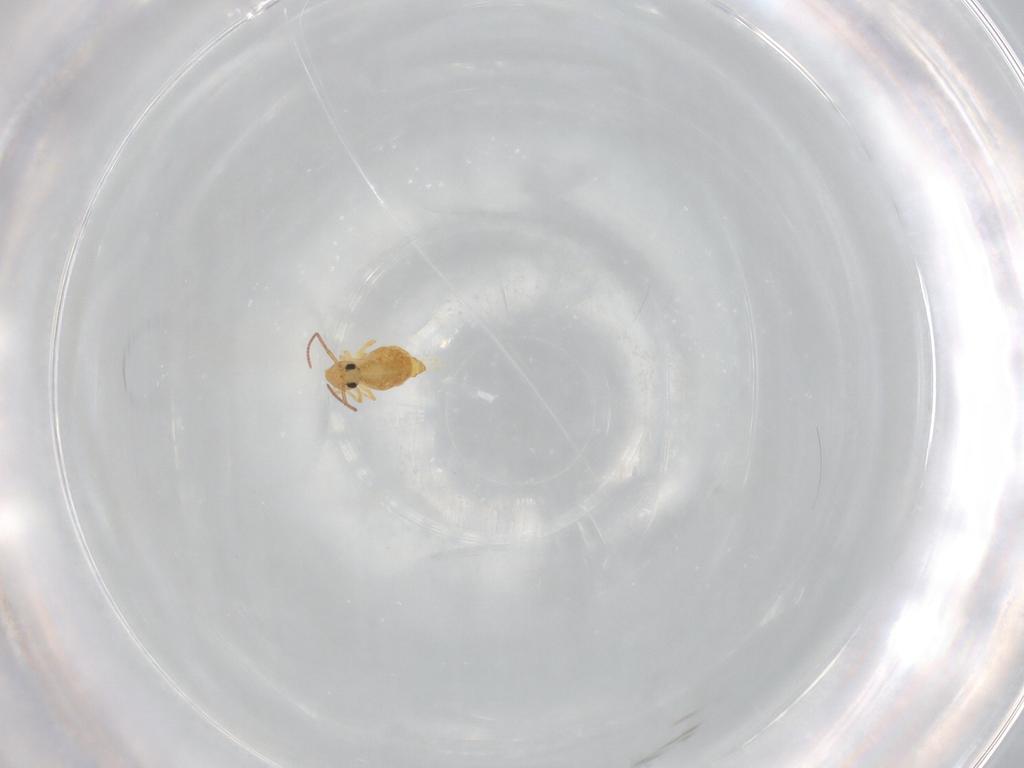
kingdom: Animalia
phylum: Arthropoda
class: Collembola
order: Symphypleona
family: Bourletiellidae
